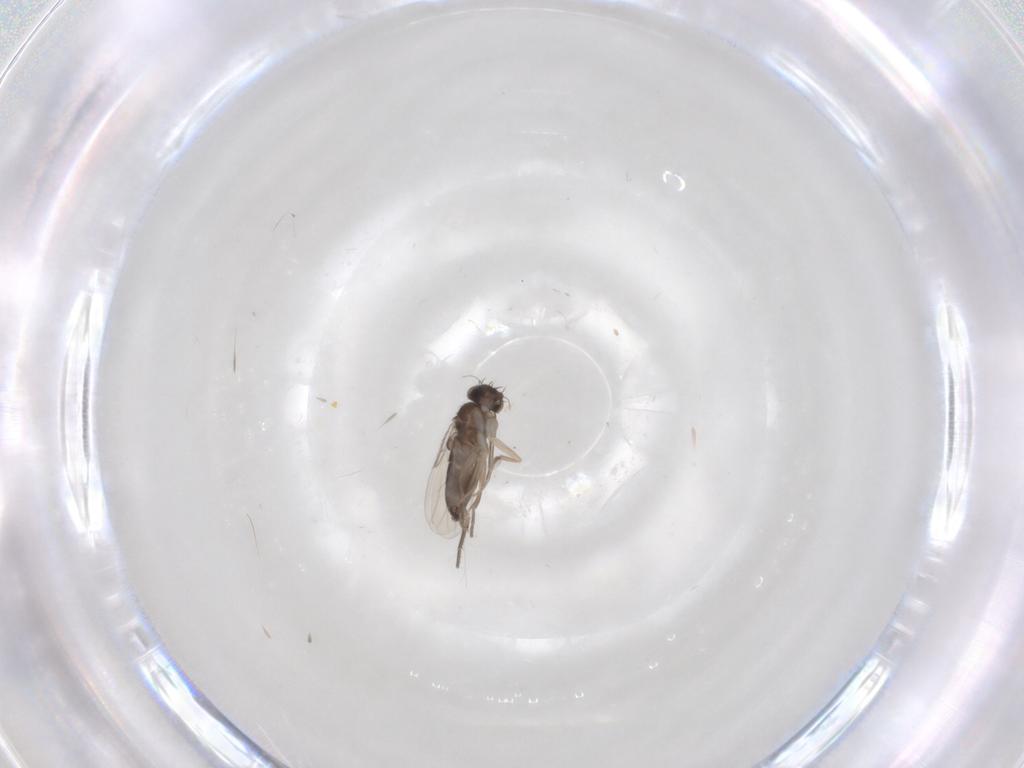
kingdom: Animalia
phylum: Arthropoda
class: Insecta
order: Diptera
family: Phoridae
